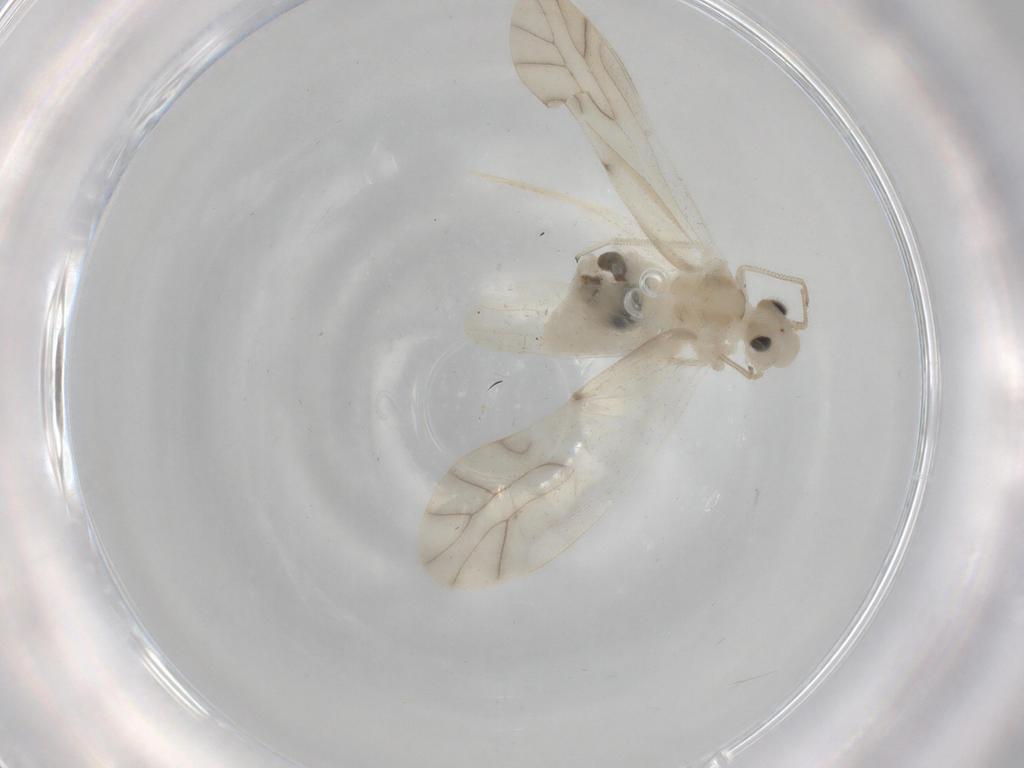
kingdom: Animalia
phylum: Arthropoda
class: Insecta
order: Psocodea
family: Caeciliusidae
